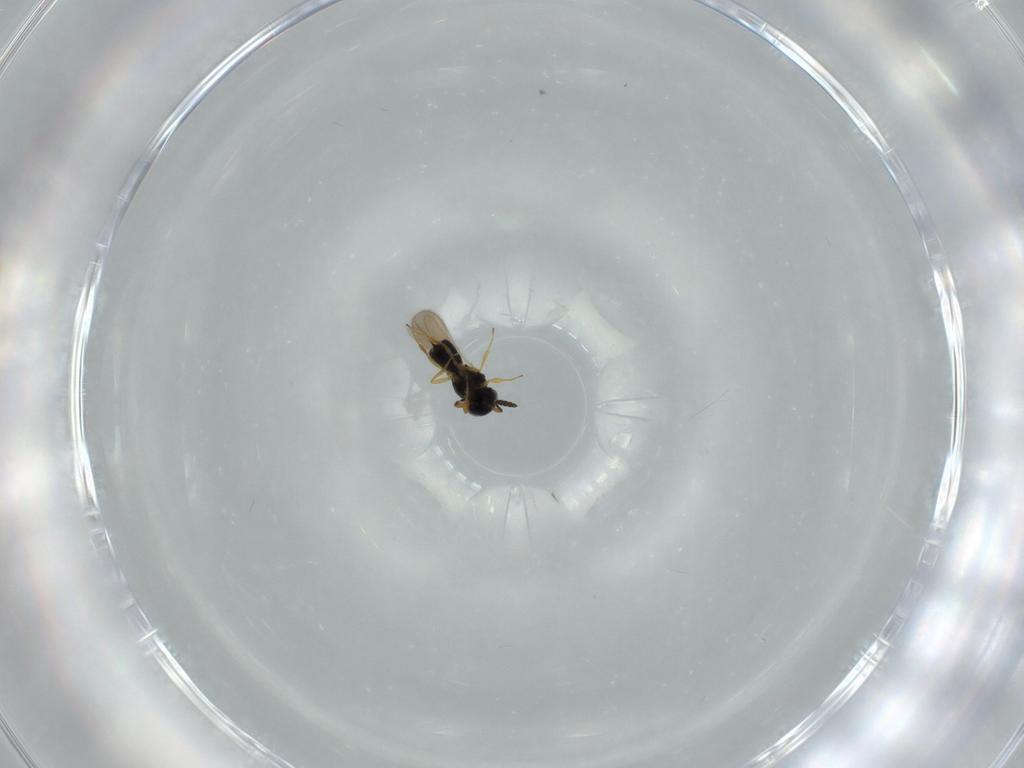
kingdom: Animalia
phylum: Arthropoda
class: Insecta
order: Hymenoptera
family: Scelionidae
